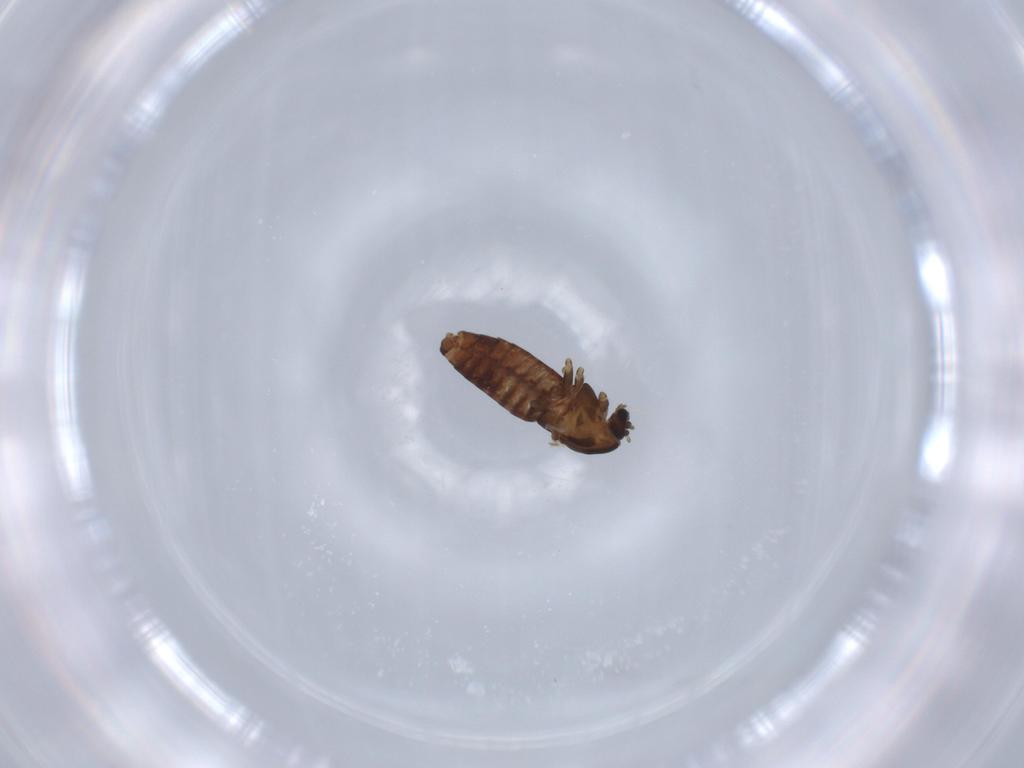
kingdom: Animalia
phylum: Arthropoda
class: Insecta
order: Diptera
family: Chironomidae
